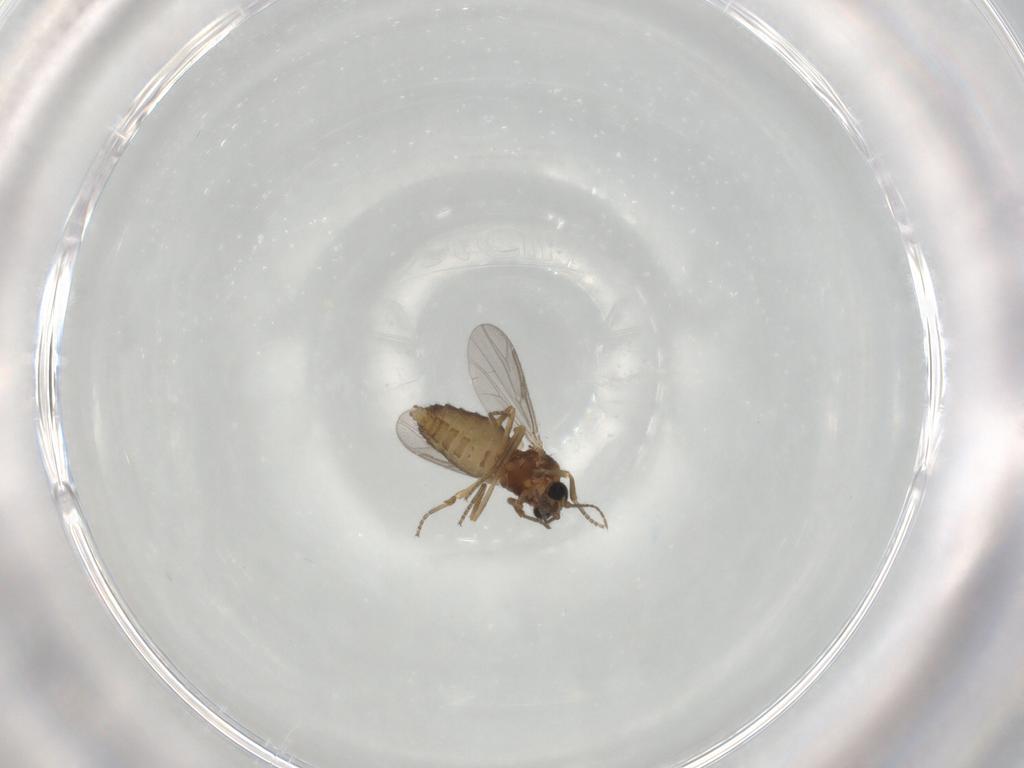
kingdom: Animalia
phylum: Arthropoda
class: Insecta
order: Diptera
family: Ceratopogonidae
